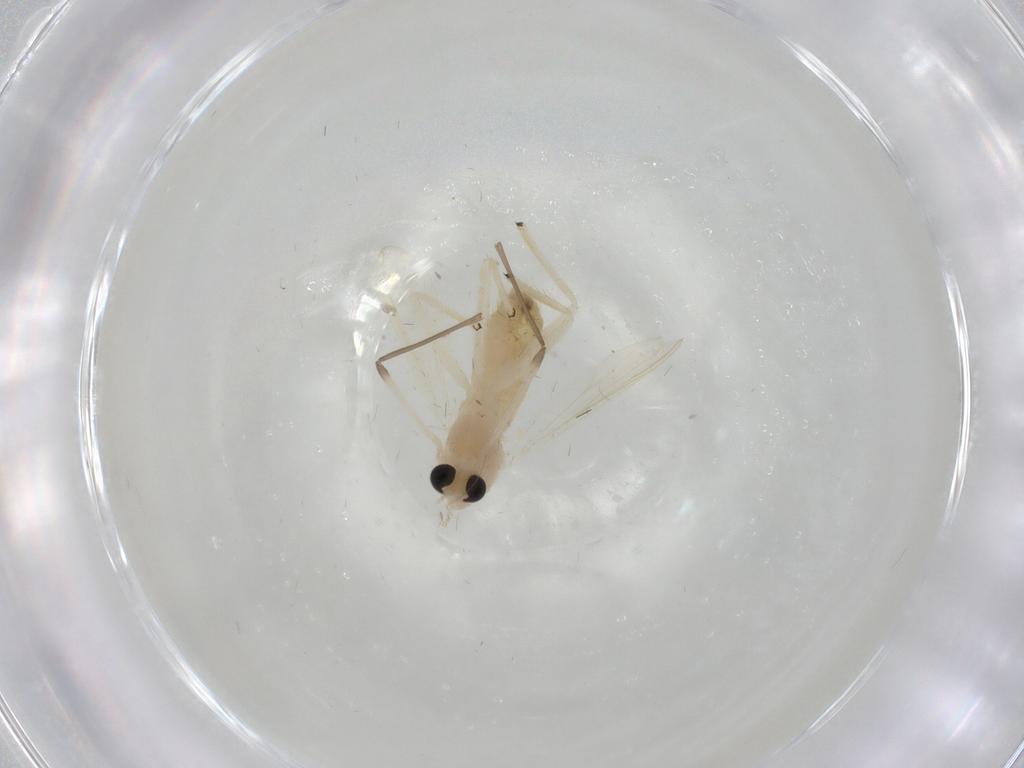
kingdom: Animalia
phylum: Arthropoda
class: Insecta
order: Diptera
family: Chironomidae
